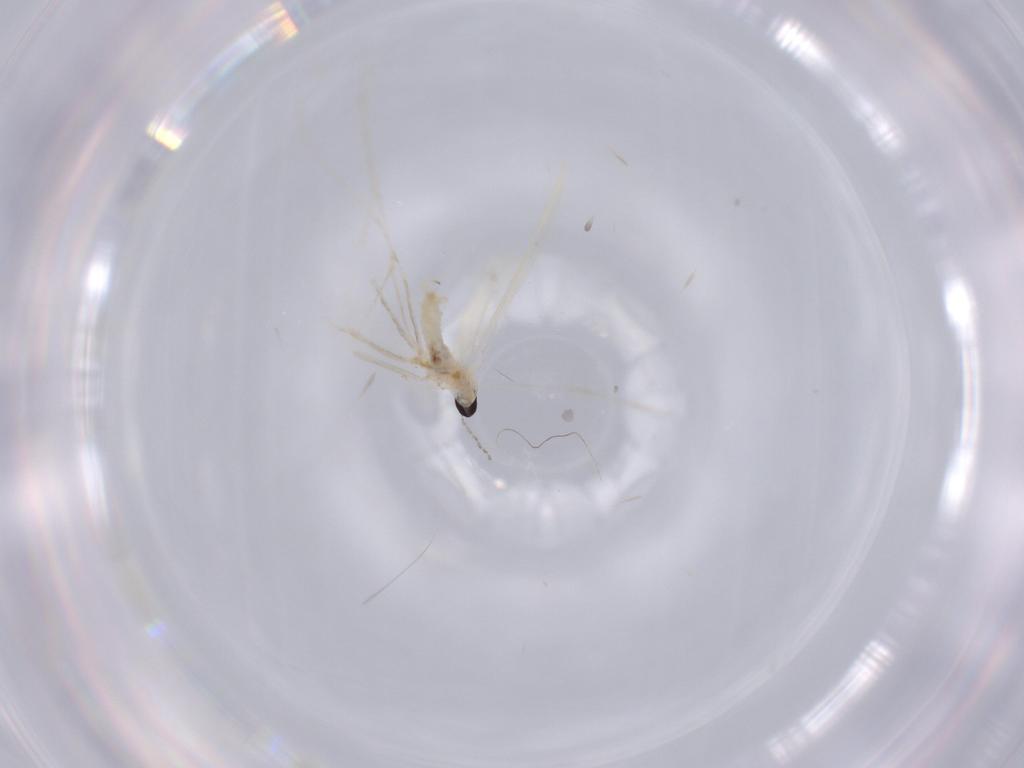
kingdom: Animalia
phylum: Arthropoda
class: Insecta
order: Diptera
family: Cecidomyiidae
